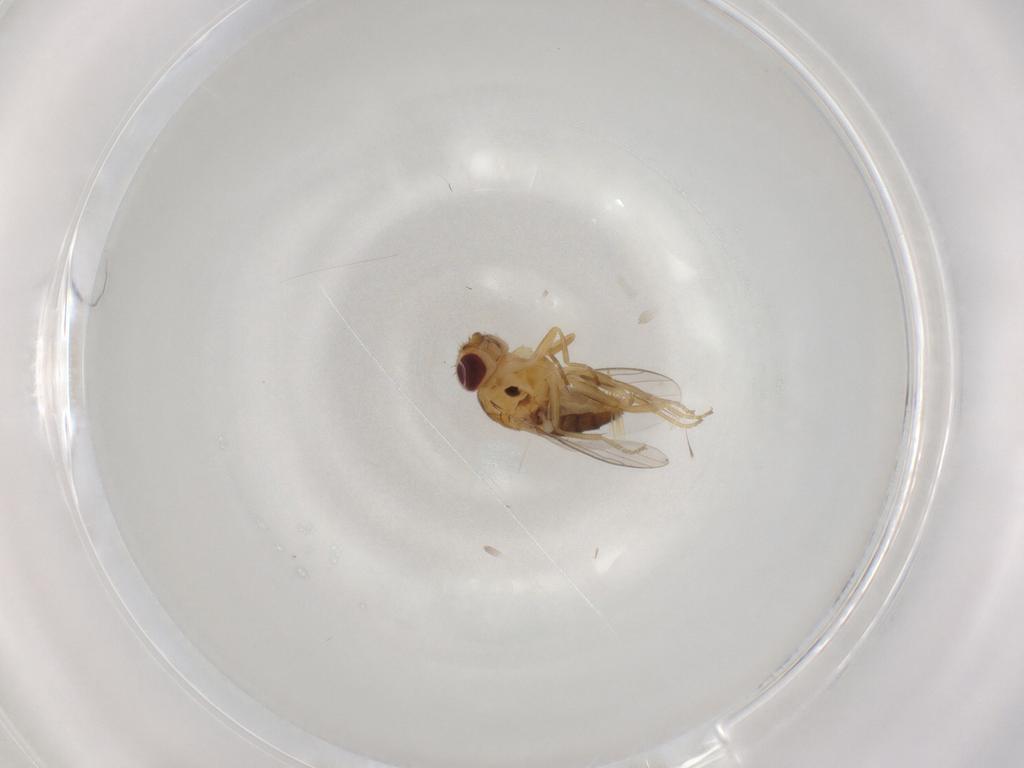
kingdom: Animalia
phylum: Arthropoda
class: Insecta
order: Diptera
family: Chloropidae
